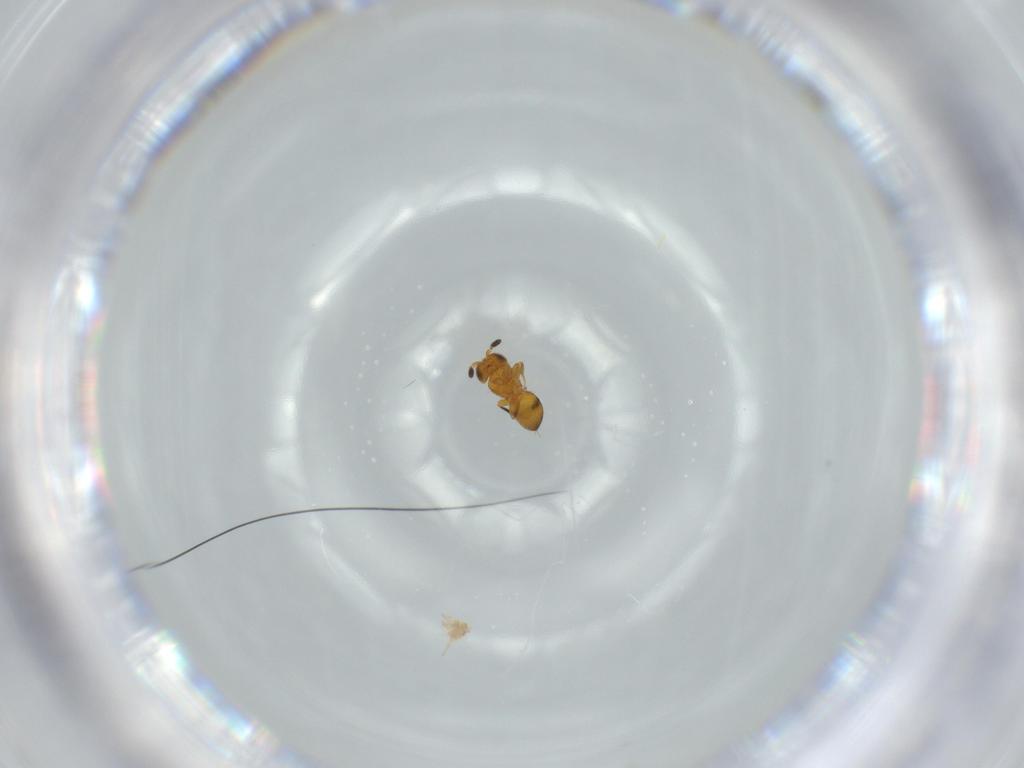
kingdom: Animalia
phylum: Arthropoda
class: Insecta
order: Hymenoptera
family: Scelionidae
